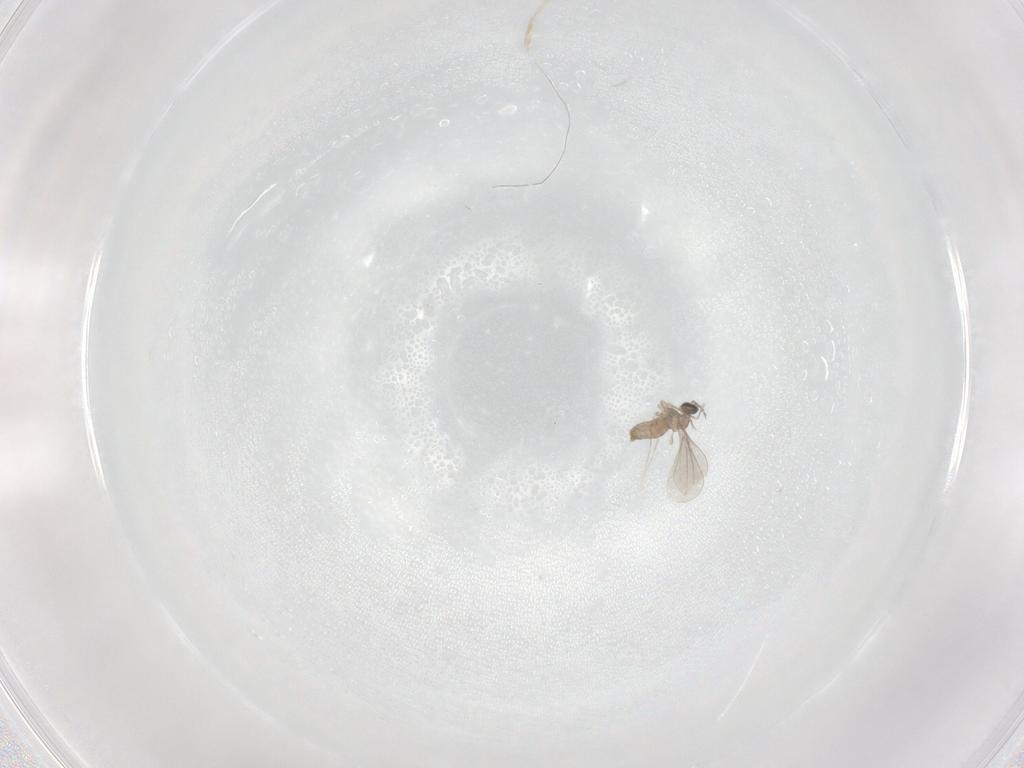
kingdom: Animalia
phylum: Arthropoda
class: Insecta
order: Diptera
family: Cecidomyiidae
